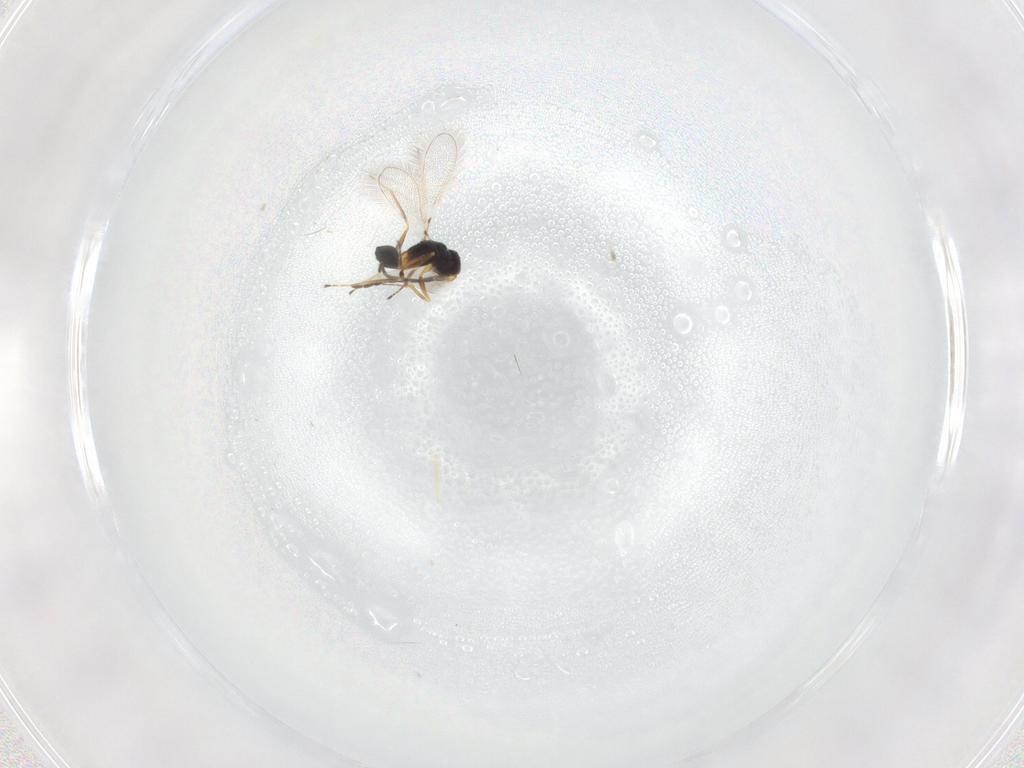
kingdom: Animalia
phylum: Arthropoda
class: Insecta
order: Hymenoptera
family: Mymaridae
